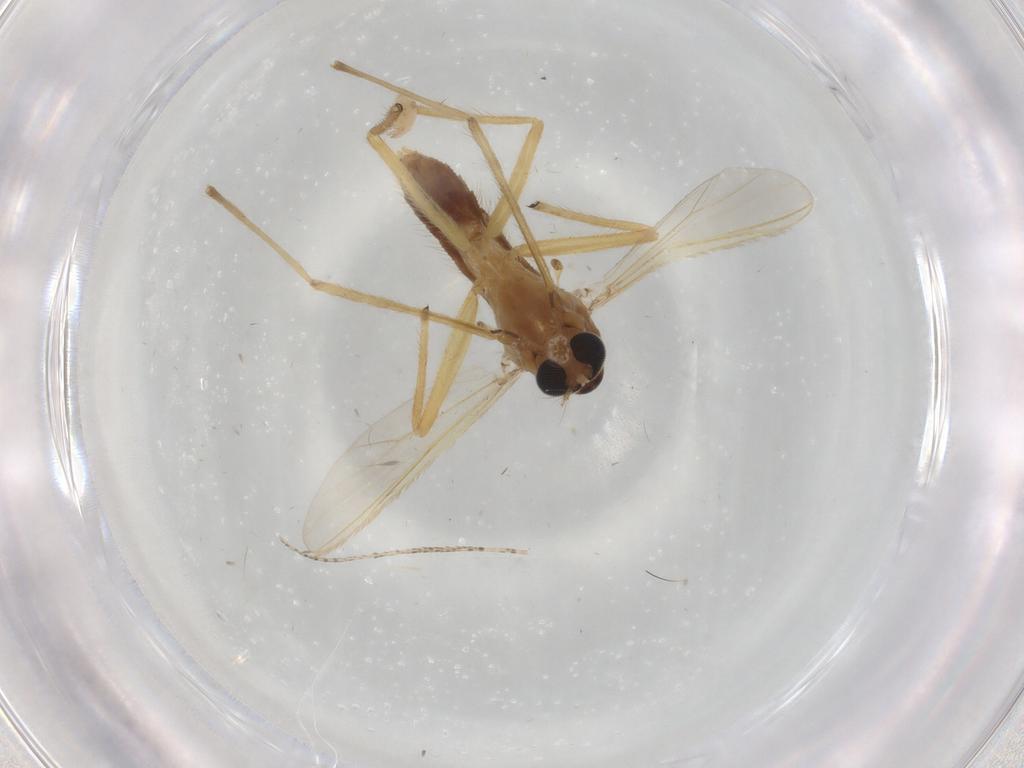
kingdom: Animalia
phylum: Arthropoda
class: Insecta
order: Diptera
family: Chironomidae
